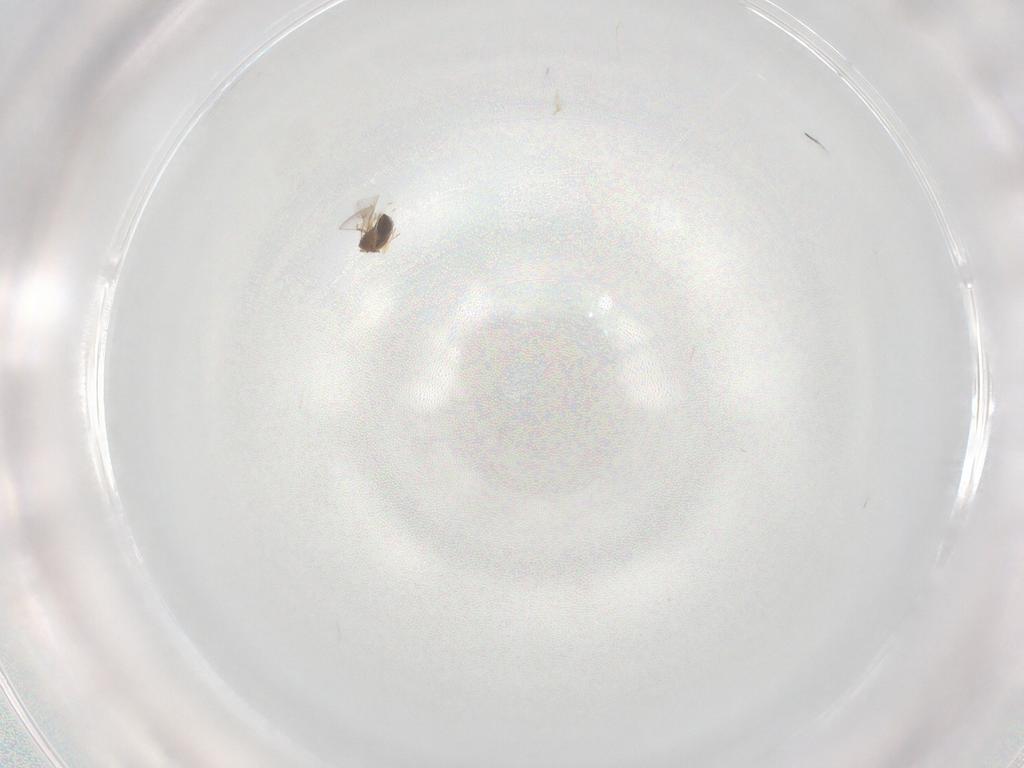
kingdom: Animalia
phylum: Arthropoda
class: Insecta
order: Hymenoptera
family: Trichogrammatidae
